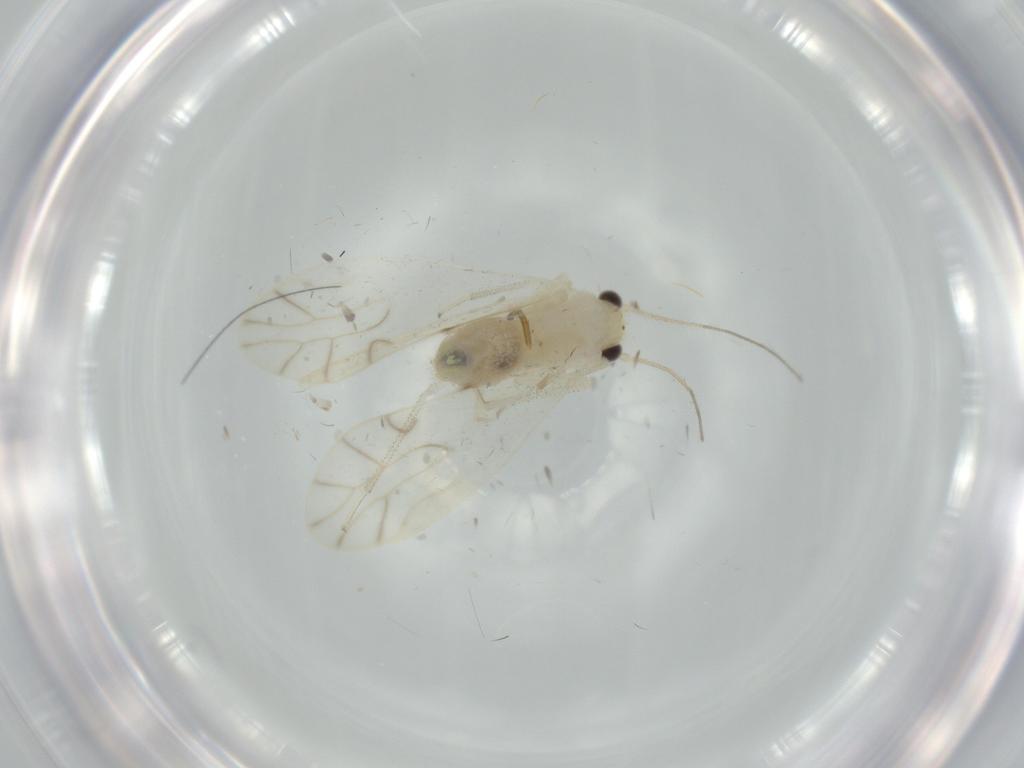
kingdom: Animalia
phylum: Arthropoda
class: Insecta
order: Psocodea
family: Caeciliusidae
